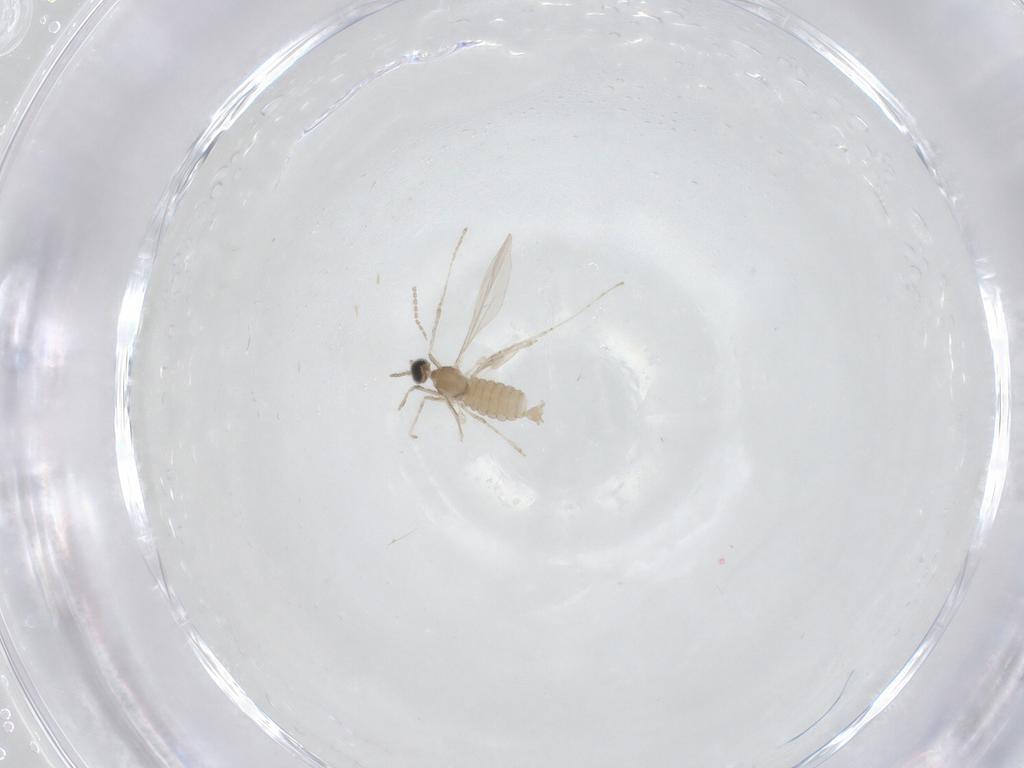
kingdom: Animalia
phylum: Arthropoda
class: Insecta
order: Diptera
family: Cecidomyiidae
